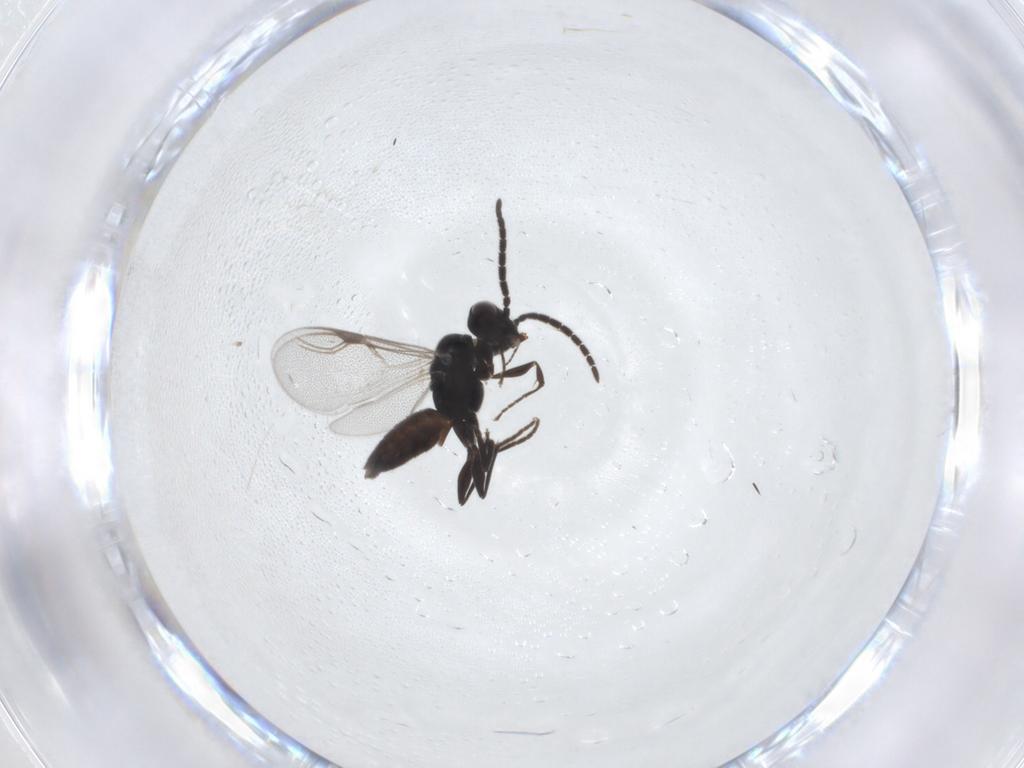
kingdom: Animalia
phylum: Arthropoda
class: Insecta
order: Hymenoptera
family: Dryinidae
